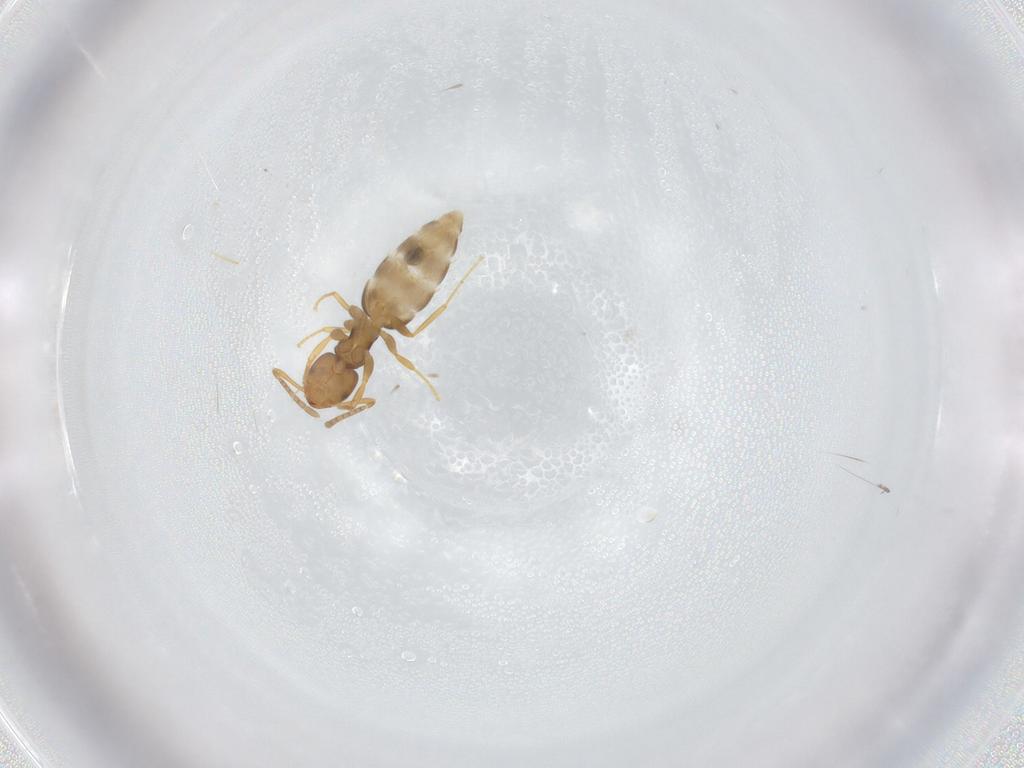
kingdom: Animalia
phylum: Arthropoda
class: Insecta
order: Hymenoptera
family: Formicidae
